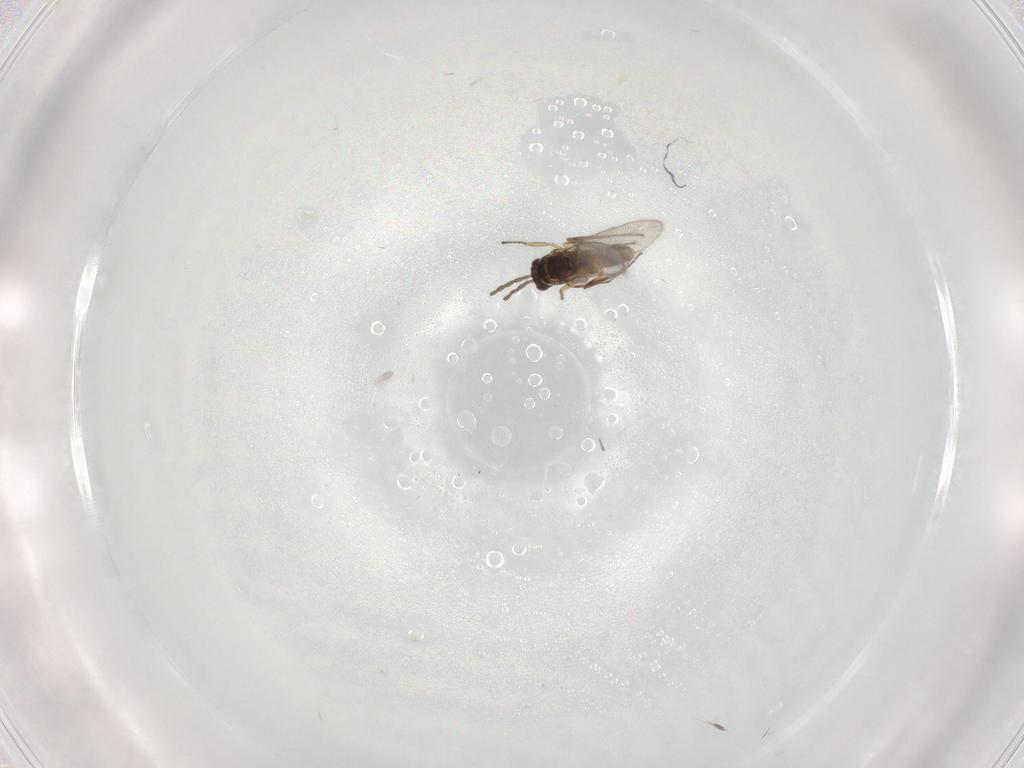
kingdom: Animalia
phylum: Arthropoda
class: Insecta
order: Hymenoptera
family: Mymaridae
